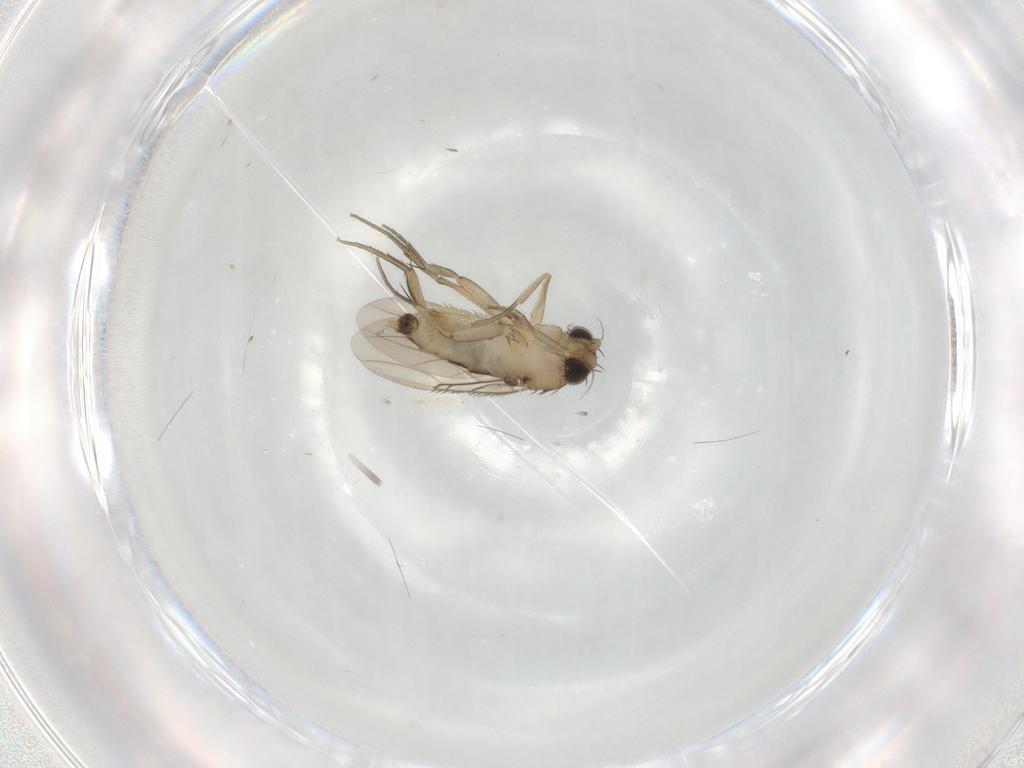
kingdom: Animalia
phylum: Arthropoda
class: Insecta
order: Diptera
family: Phoridae
